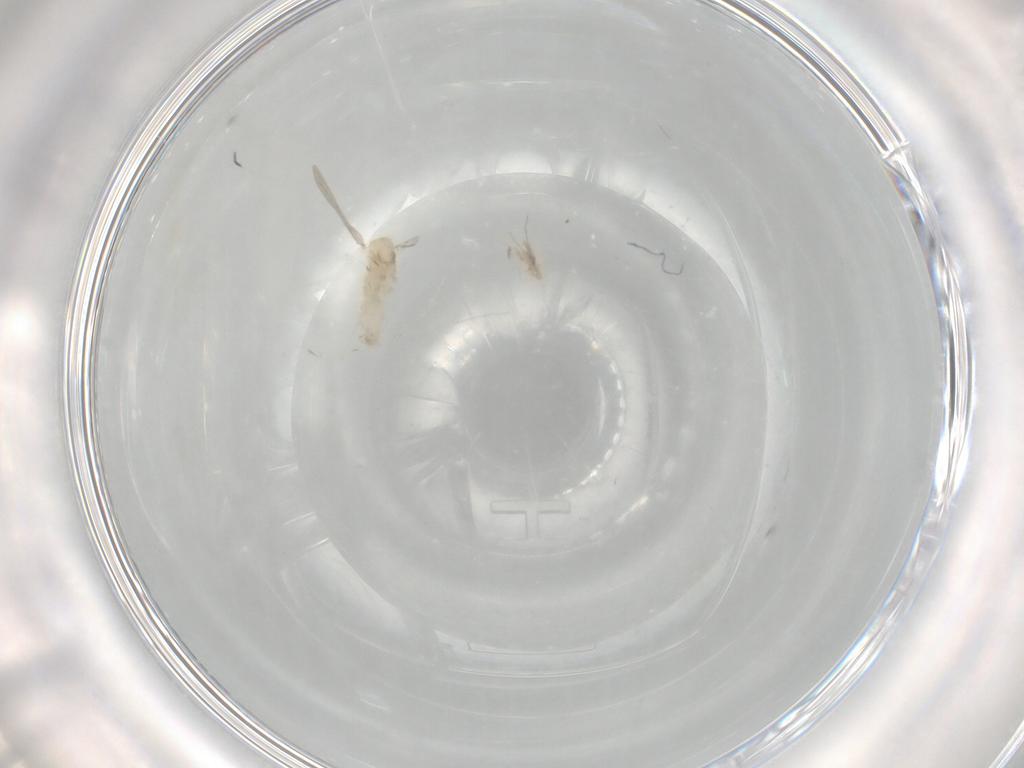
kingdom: Animalia
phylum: Arthropoda
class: Insecta
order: Diptera
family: Cecidomyiidae
